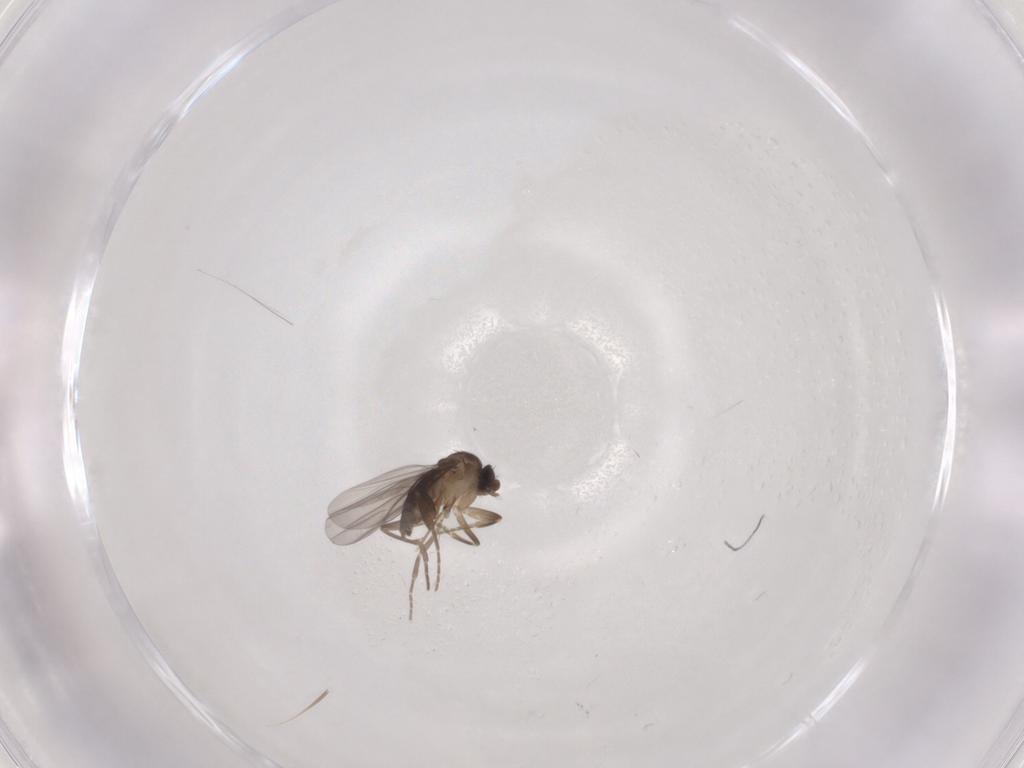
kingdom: Animalia
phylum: Arthropoda
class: Insecta
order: Diptera
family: Cecidomyiidae
